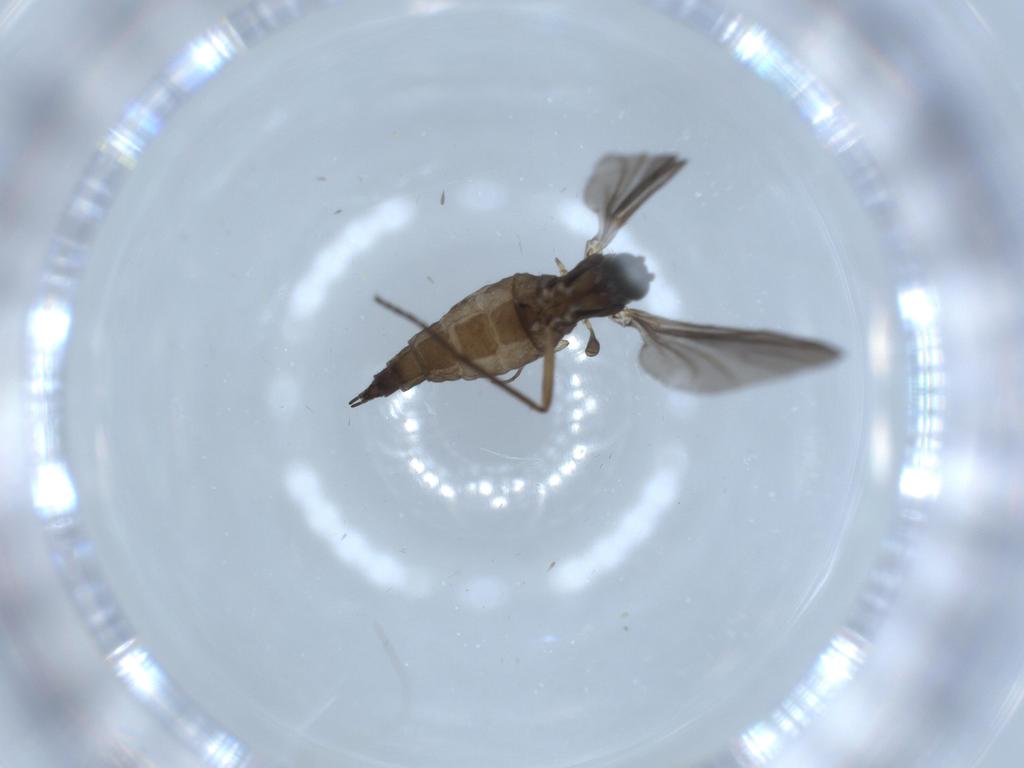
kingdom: Animalia
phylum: Arthropoda
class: Insecta
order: Diptera
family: Sciaridae
